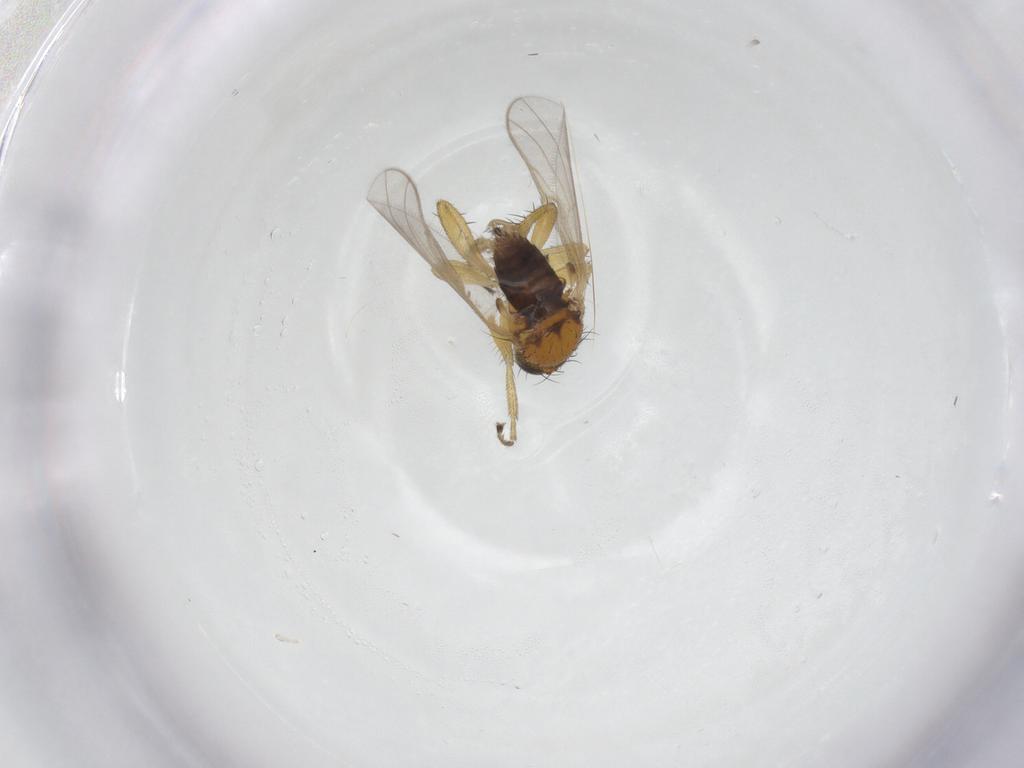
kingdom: Animalia
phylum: Arthropoda
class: Insecta
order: Diptera
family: Hybotidae
